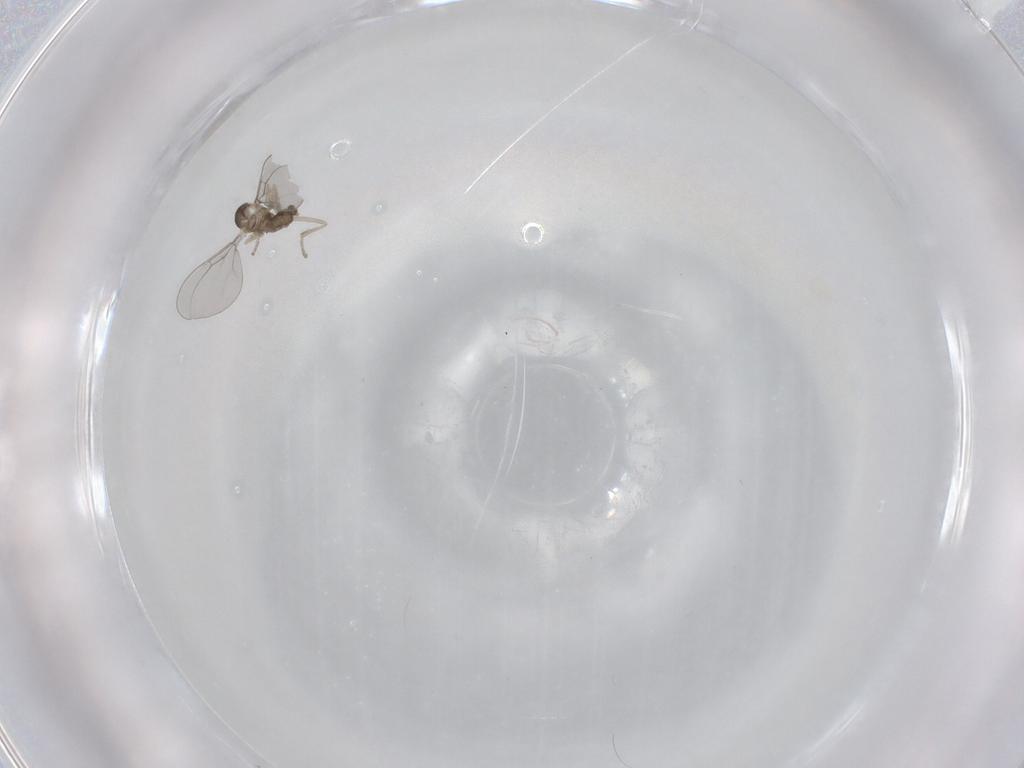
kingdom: Animalia
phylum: Arthropoda
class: Insecta
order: Diptera
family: Cecidomyiidae
